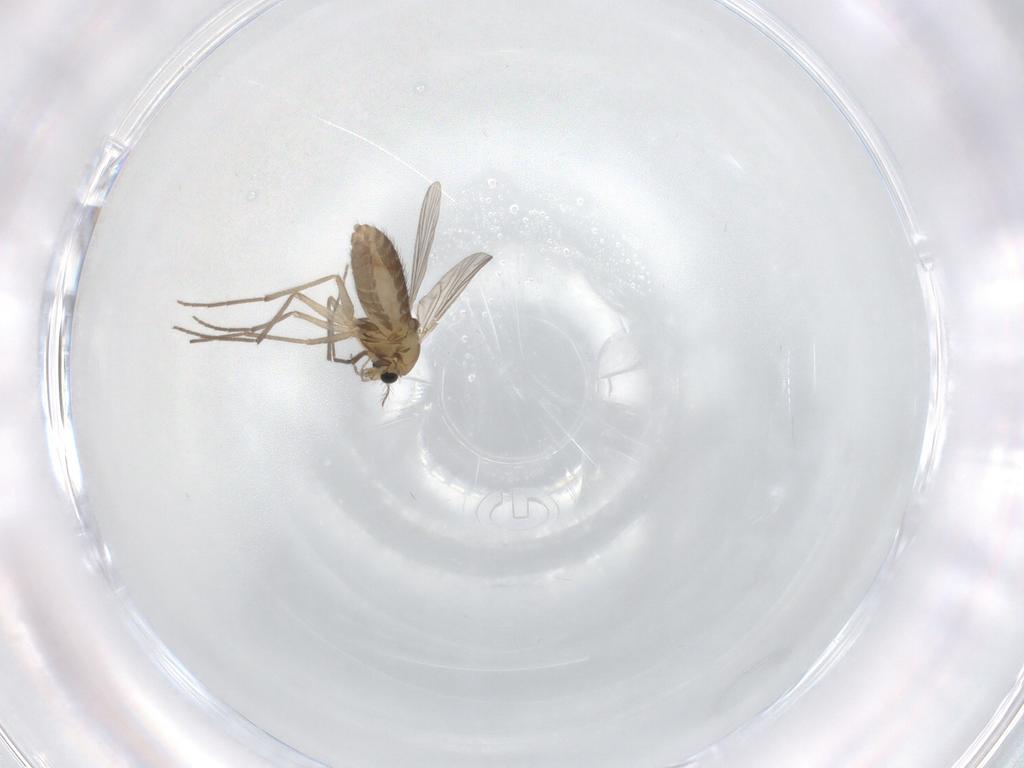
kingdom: Animalia
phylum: Arthropoda
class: Insecta
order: Diptera
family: Chironomidae
